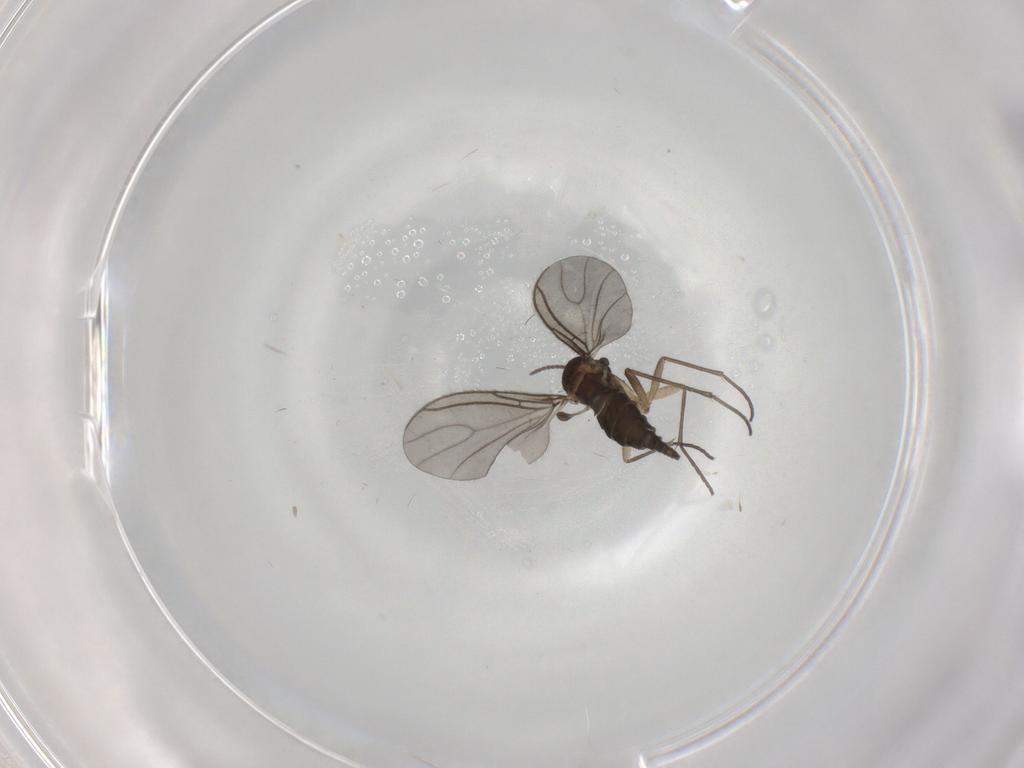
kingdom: Animalia
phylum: Arthropoda
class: Insecta
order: Diptera
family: Sciaridae
